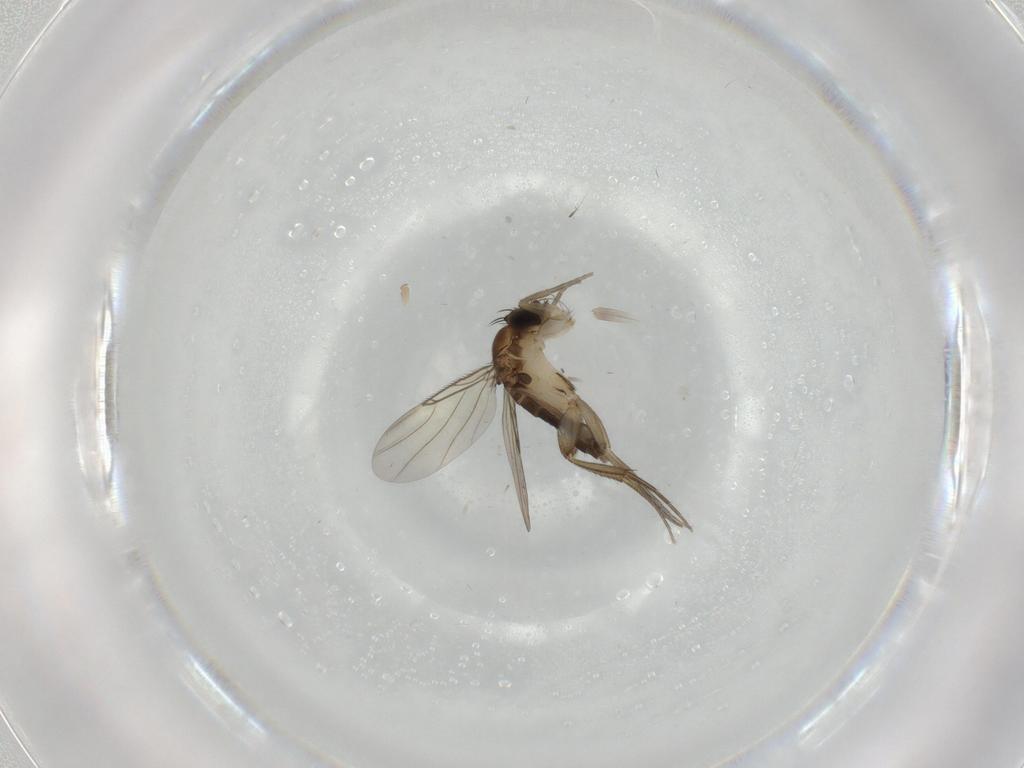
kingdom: Animalia
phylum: Arthropoda
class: Insecta
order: Diptera
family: Phoridae
